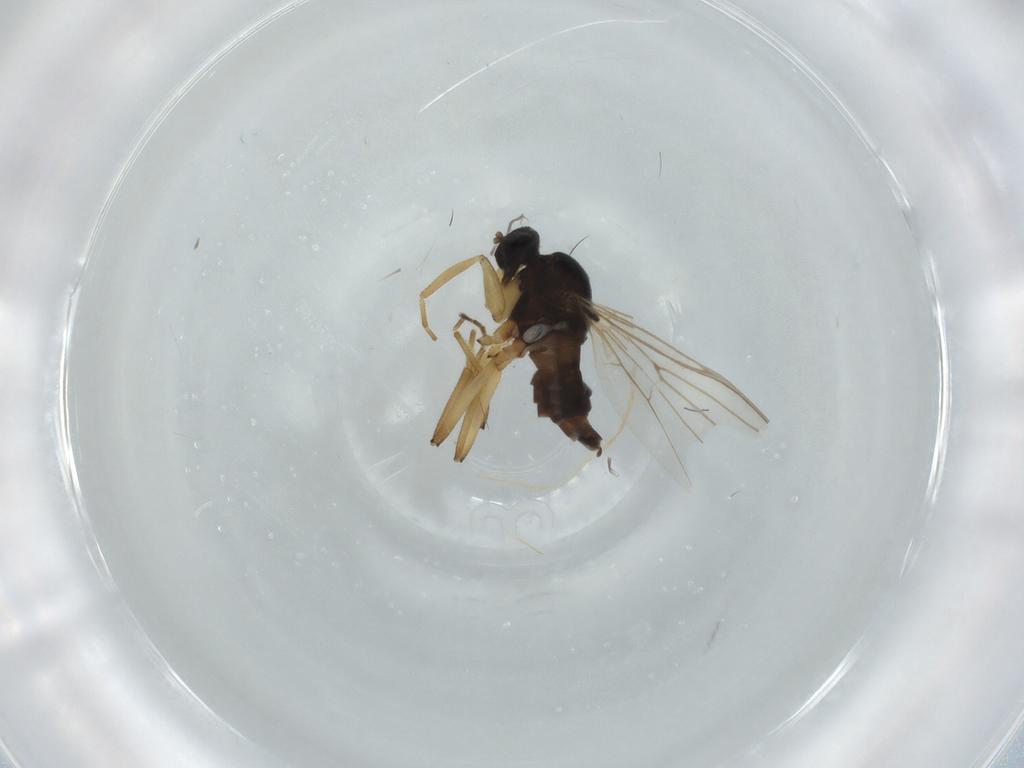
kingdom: Animalia
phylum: Arthropoda
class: Insecta
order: Diptera
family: Hybotidae
